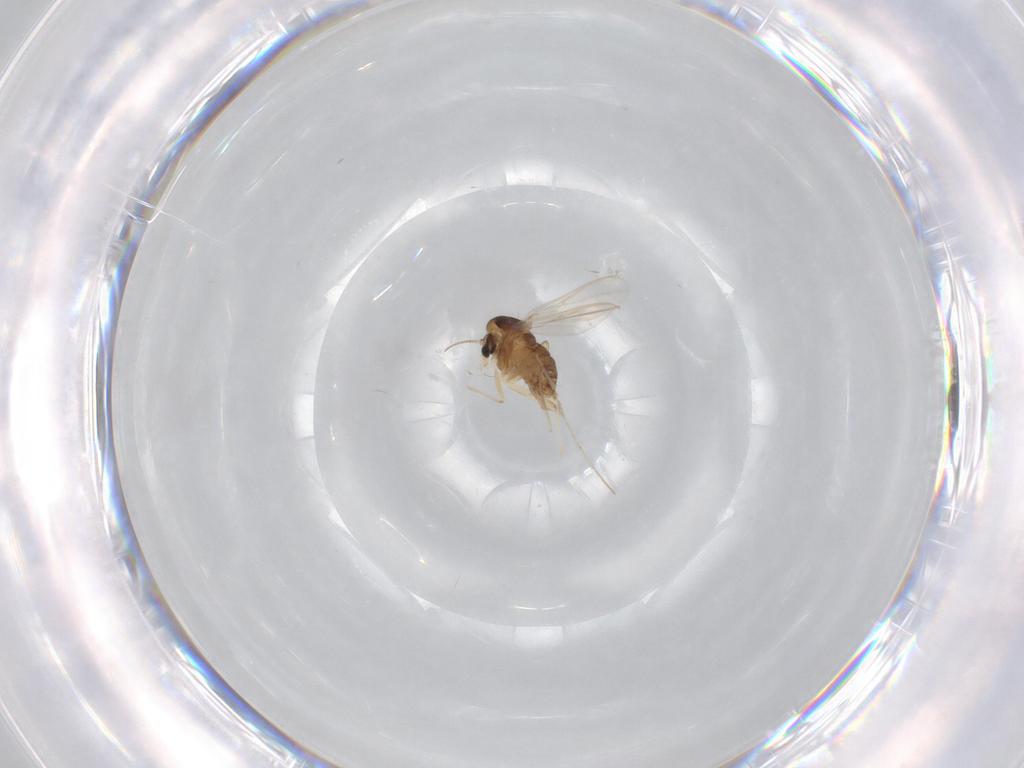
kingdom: Animalia
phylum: Arthropoda
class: Insecta
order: Diptera
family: Chironomidae
